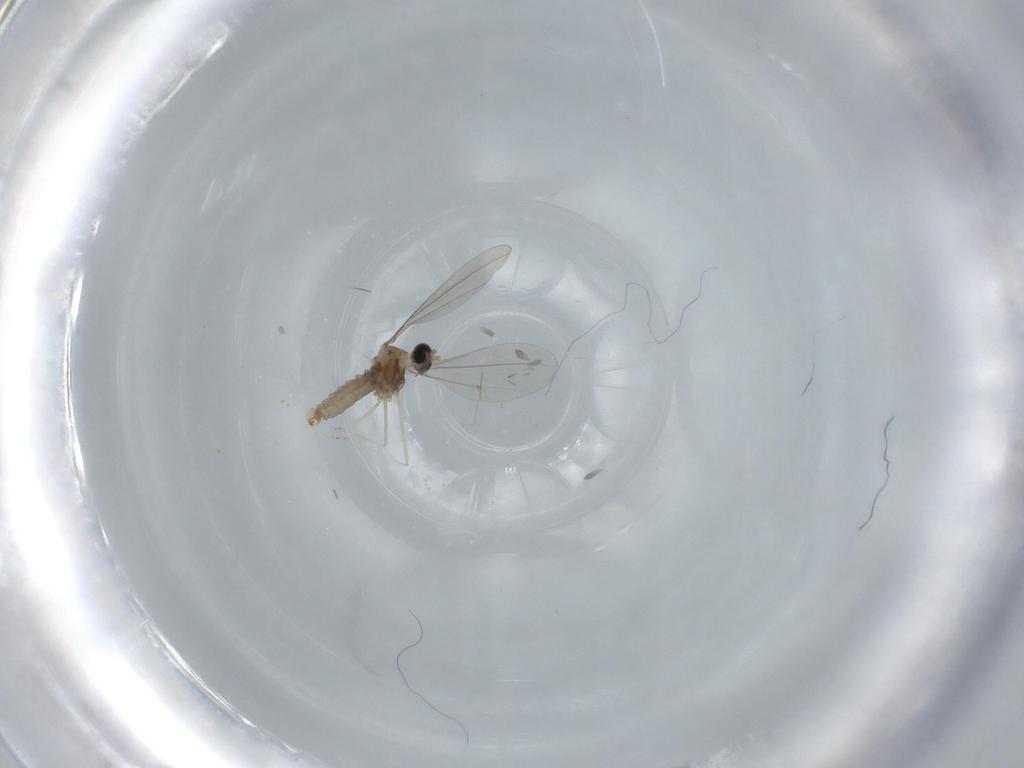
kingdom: Animalia
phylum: Arthropoda
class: Insecta
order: Diptera
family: Cecidomyiidae
